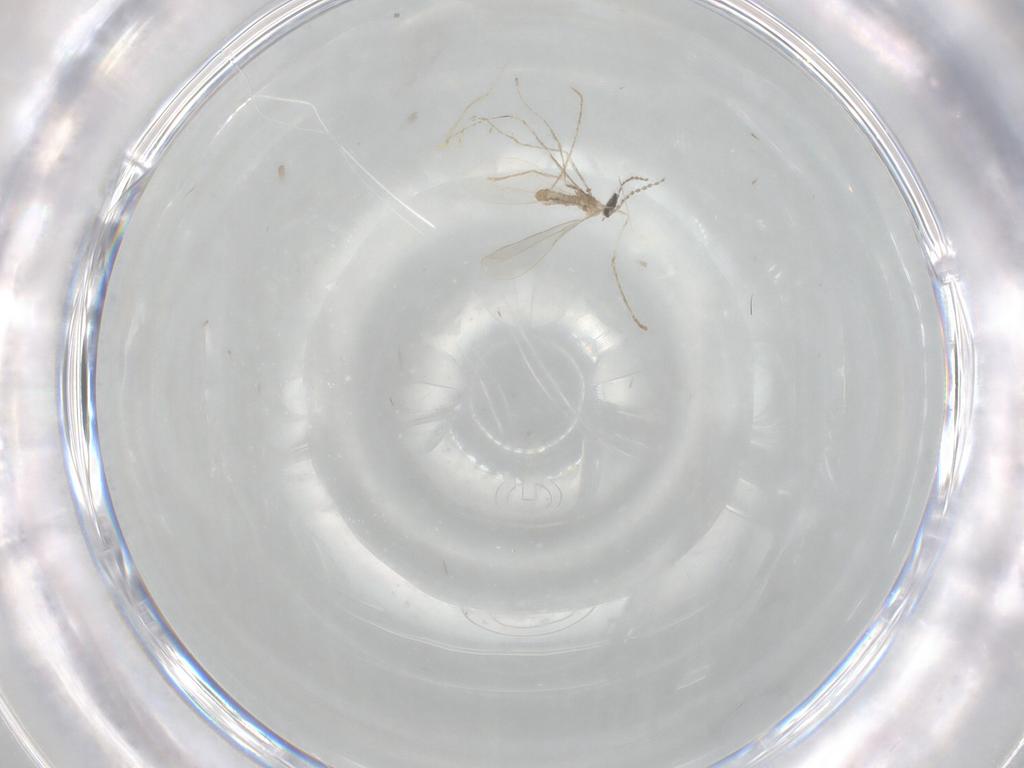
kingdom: Animalia
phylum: Arthropoda
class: Insecta
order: Diptera
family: Cecidomyiidae
